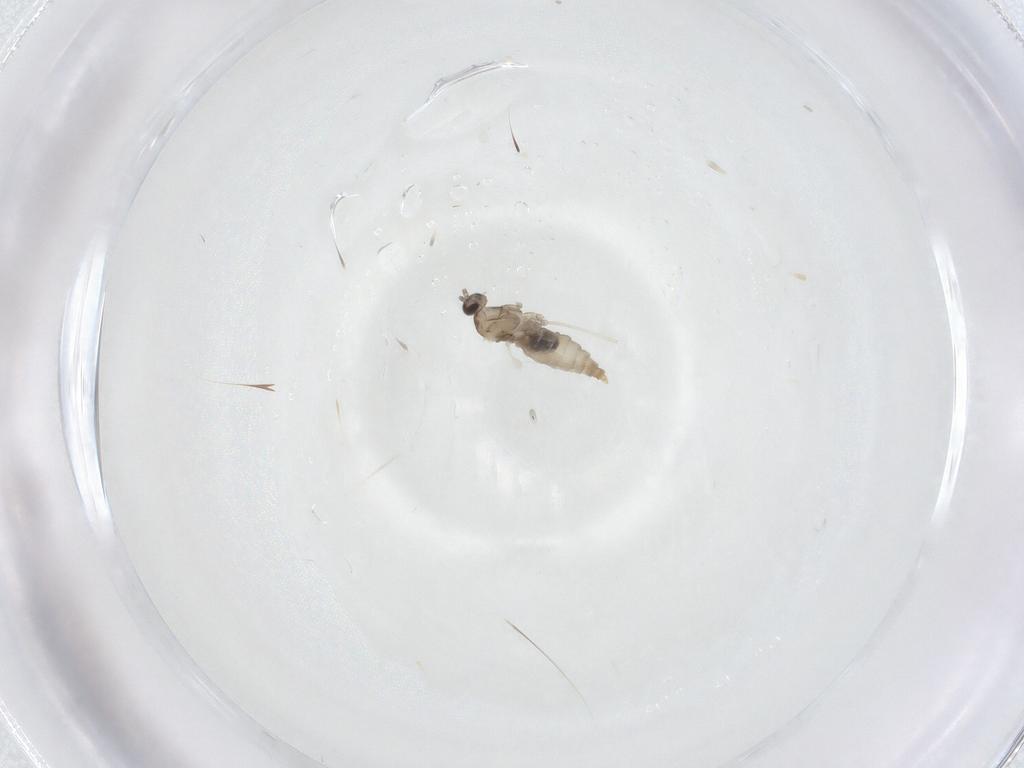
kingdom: Animalia
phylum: Arthropoda
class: Insecta
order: Diptera
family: Cecidomyiidae
